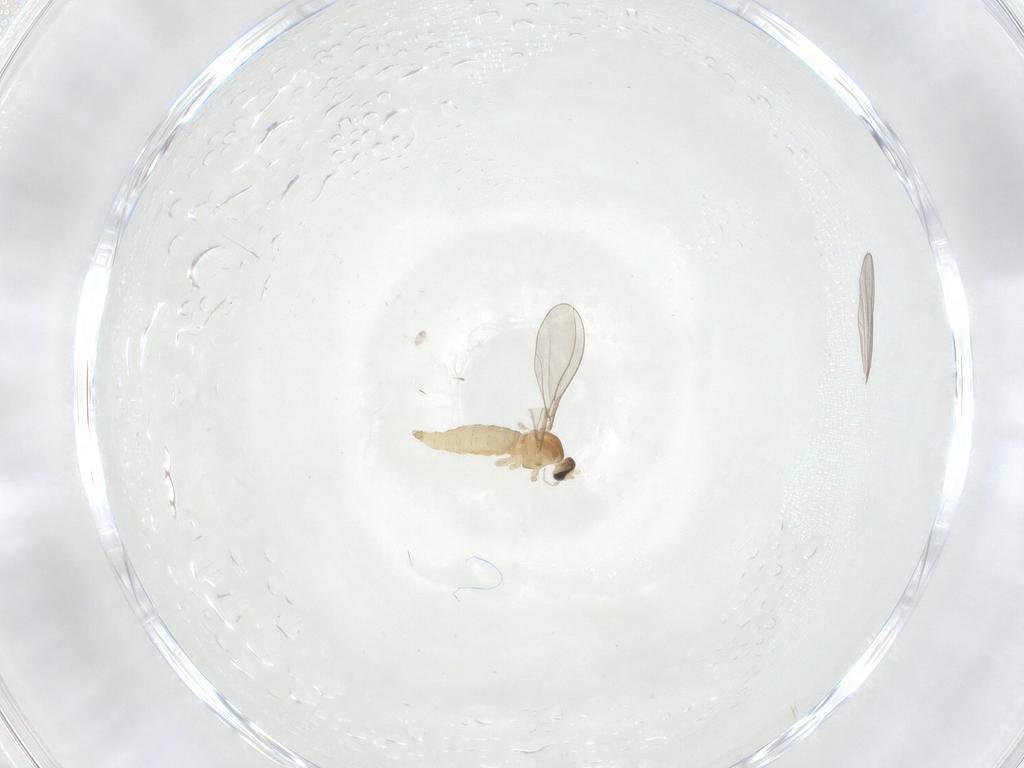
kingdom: Animalia
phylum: Arthropoda
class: Insecta
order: Diptera
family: Cecidomyiidae
